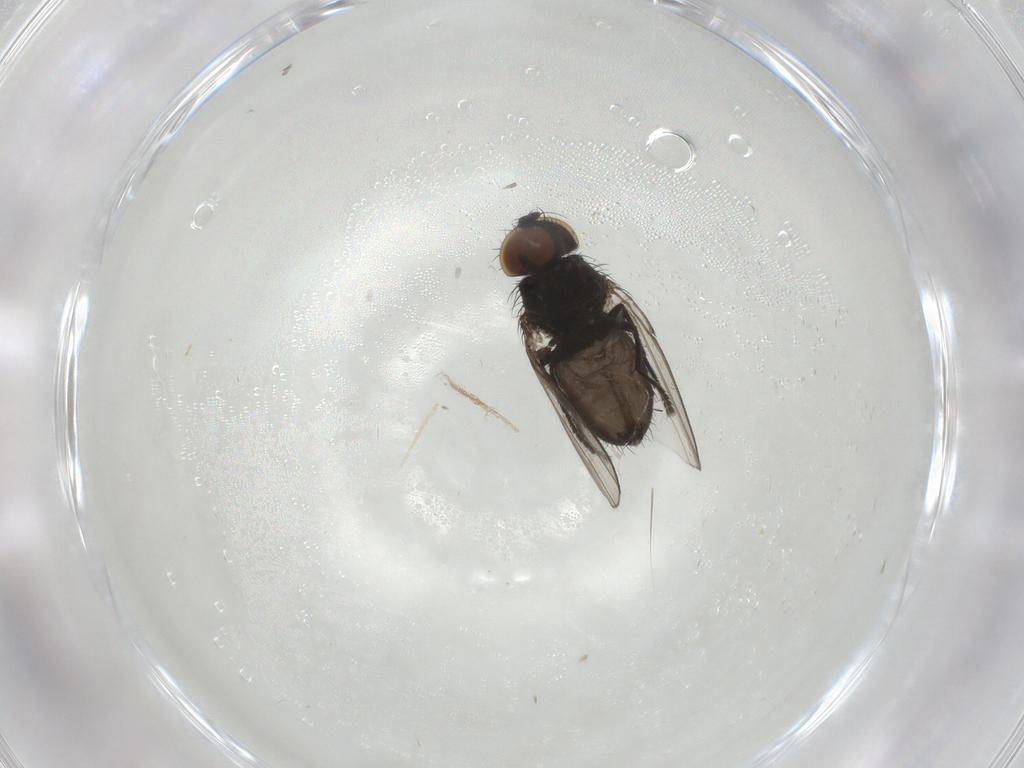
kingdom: Animalia
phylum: Arthropoda
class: Insecta
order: Diptera
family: Milichiidae
